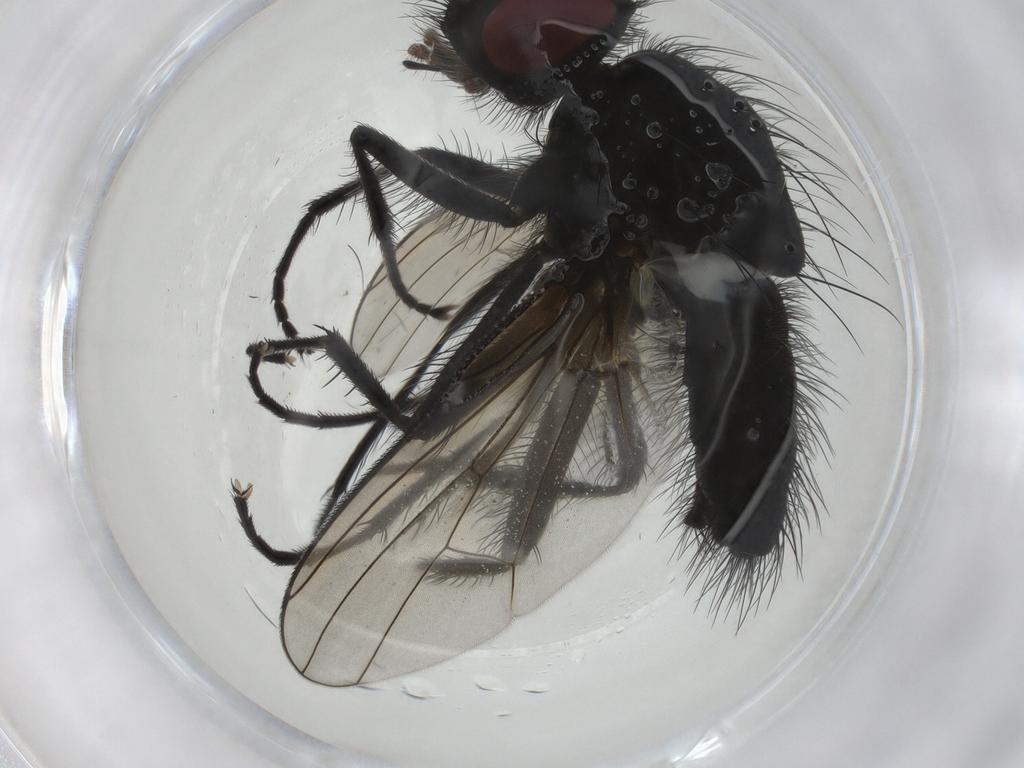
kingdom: Animalia
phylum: Arthropoda
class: Insecta
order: Diptera
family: Muscidae
